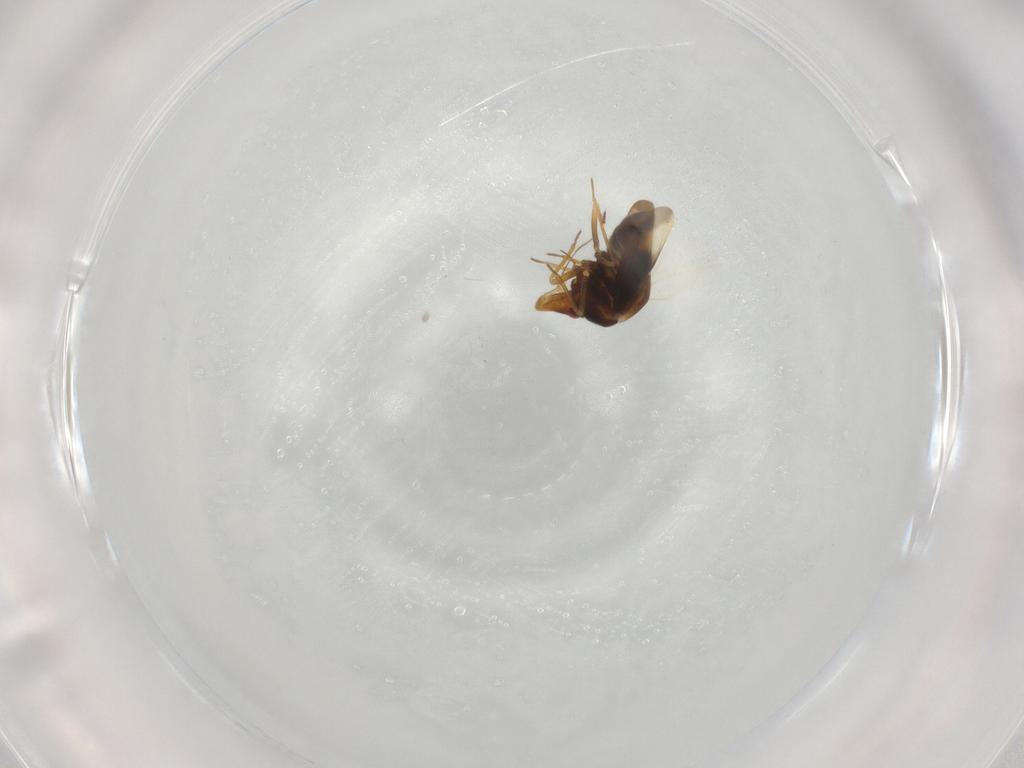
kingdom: Animalia
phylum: Arthropoda
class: Insecta
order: Hemiptera
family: Schizopteridae
